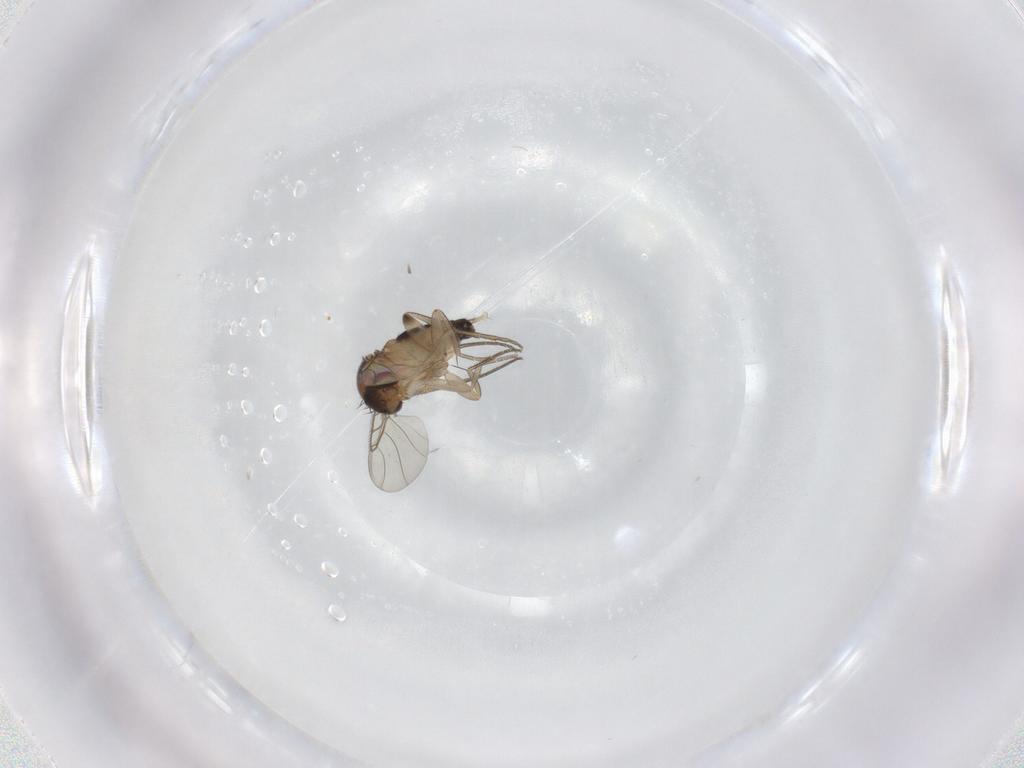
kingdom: Animalia
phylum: Arthropoda
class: Insecta
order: Diptera
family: Phoridae
